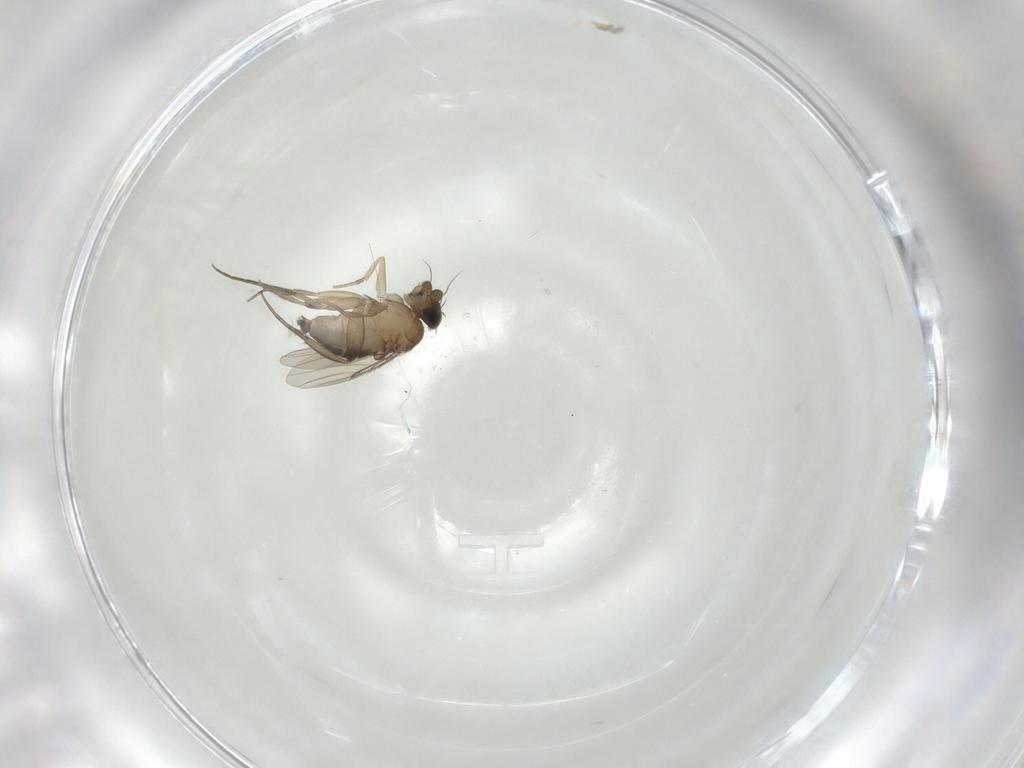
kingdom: Animalia
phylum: Arthropoda
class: Insecta
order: Diptera
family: Phoridae
